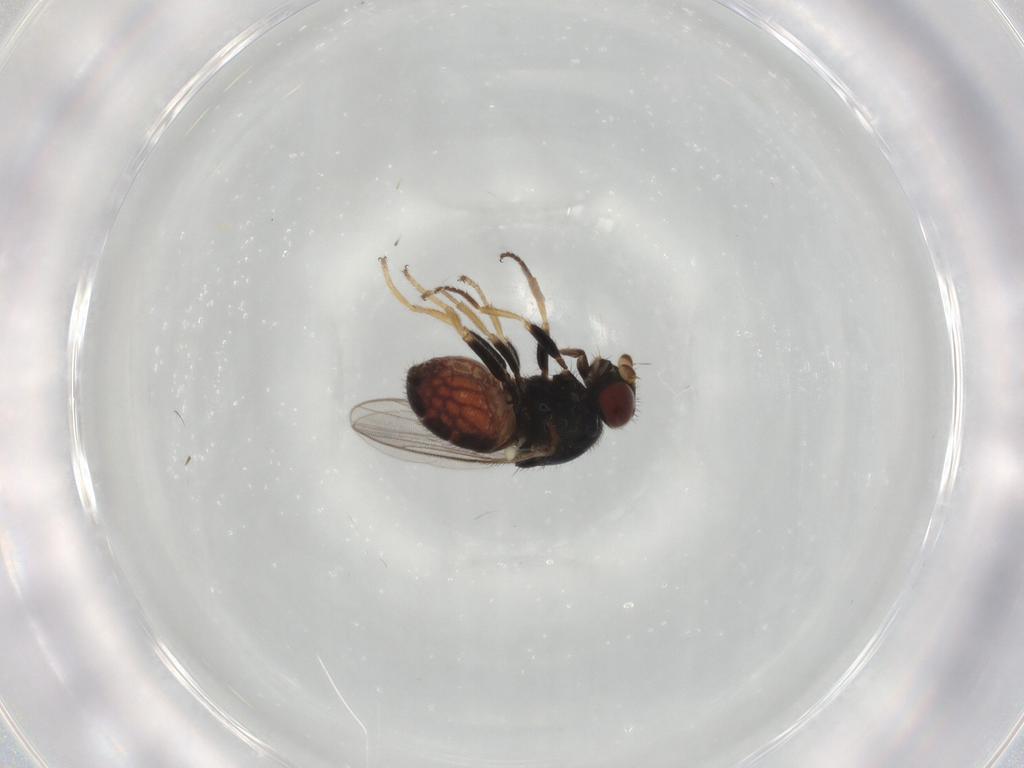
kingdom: Animalia
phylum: Arthropoda
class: Insecta
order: Diptera
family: Chloropidae
